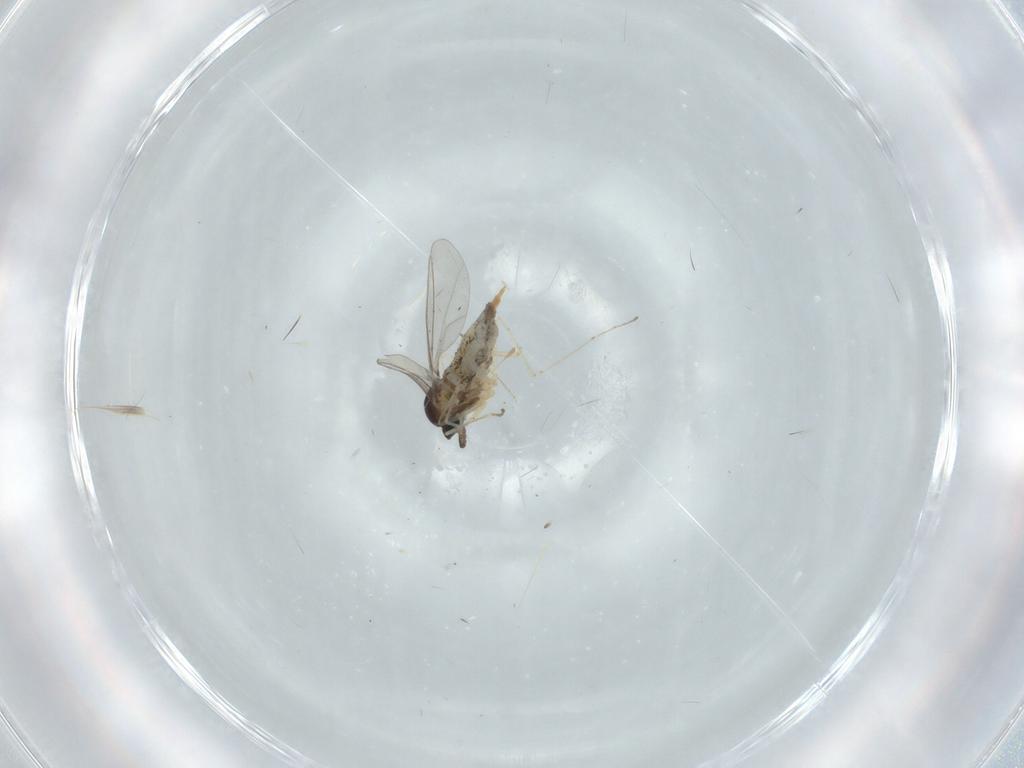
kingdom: Animalia
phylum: Arthropoda
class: Insecta
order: Diptera
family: Cecidomyiidae
